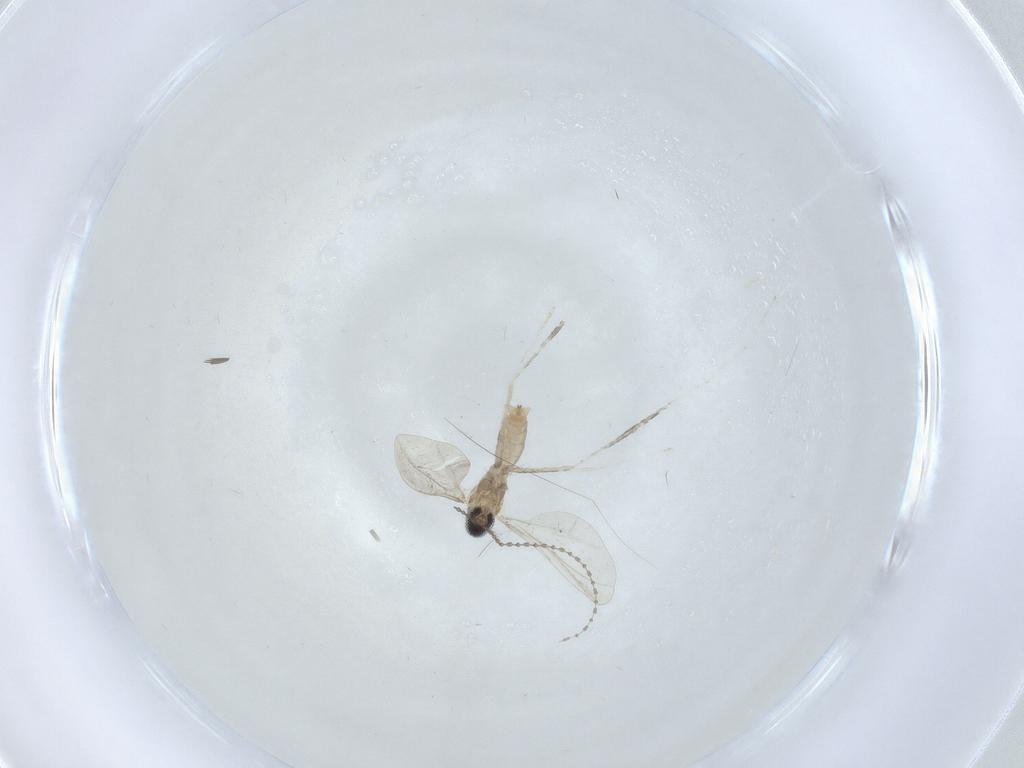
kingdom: Animalia
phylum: Arthropoda
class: Insecta
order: Diptera
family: Cecidomyiidae
